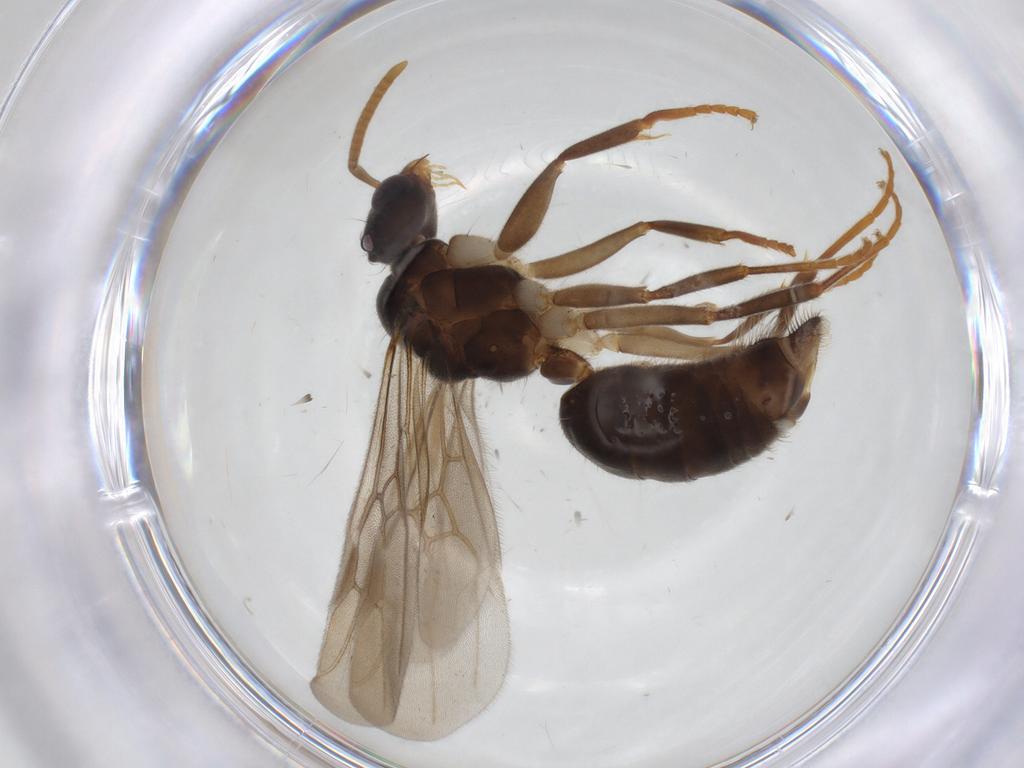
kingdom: Animalia
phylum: Arthropoda
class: Insecta
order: Hymenoptera
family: Formicidae
